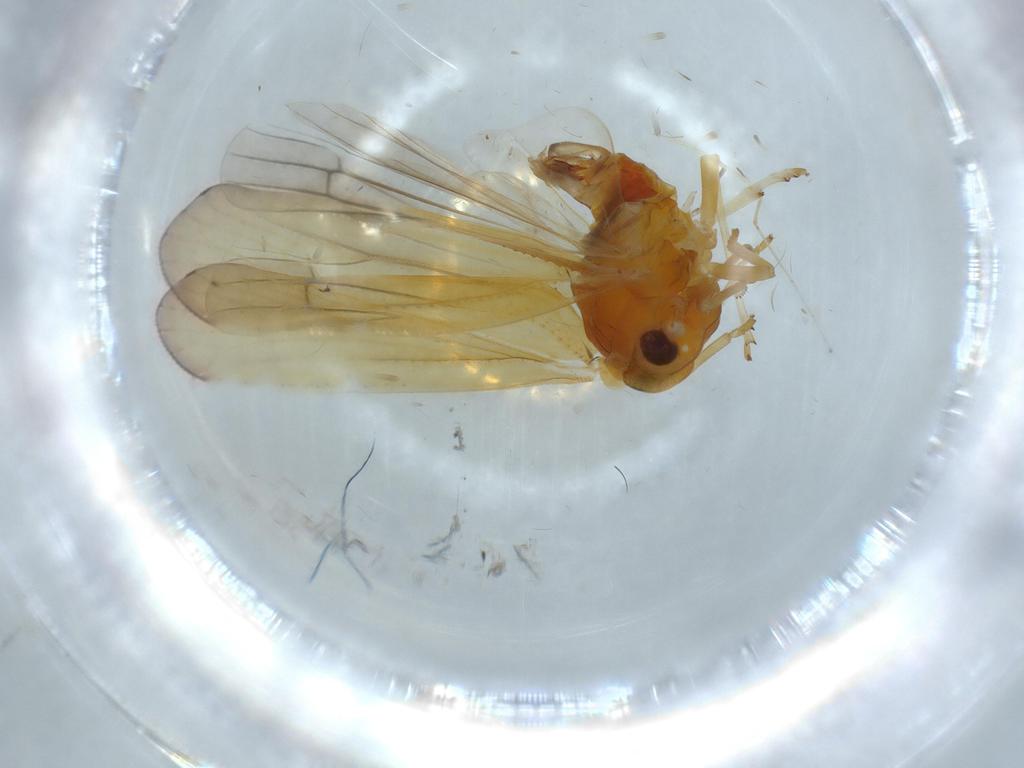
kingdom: Animalia
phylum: Arthropoda
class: Insecta
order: Hemiptera
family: Derbidae
